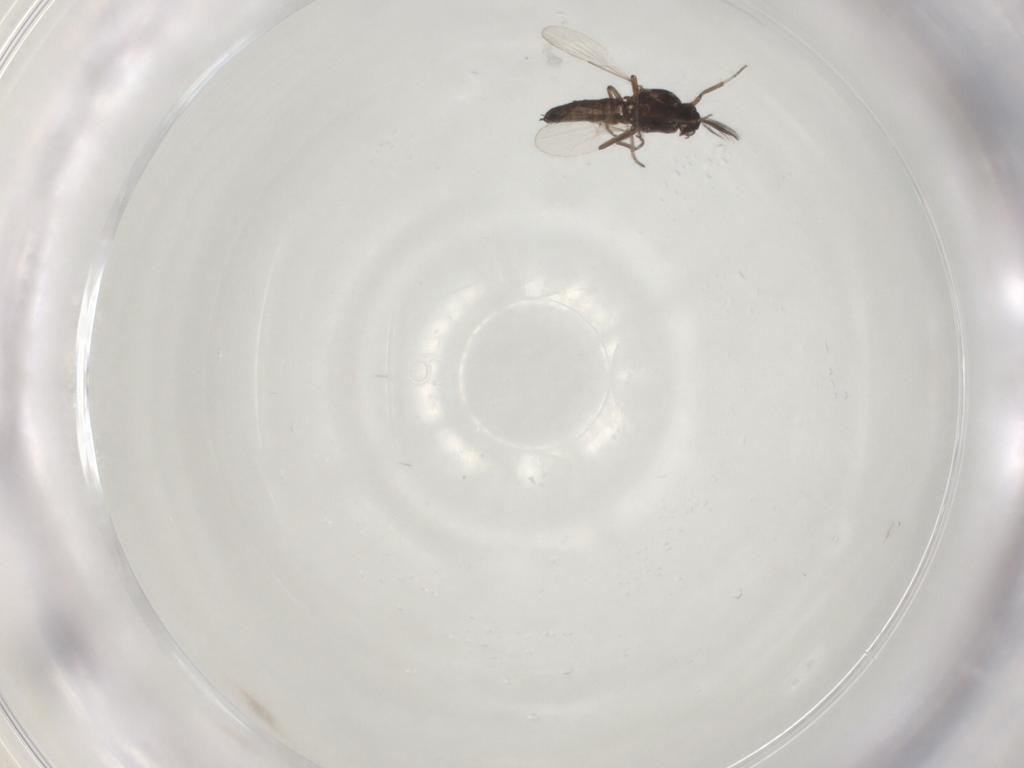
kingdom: Animalia
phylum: Arthropoda
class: Insecta
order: Diptera
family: Ceratopogonidae
